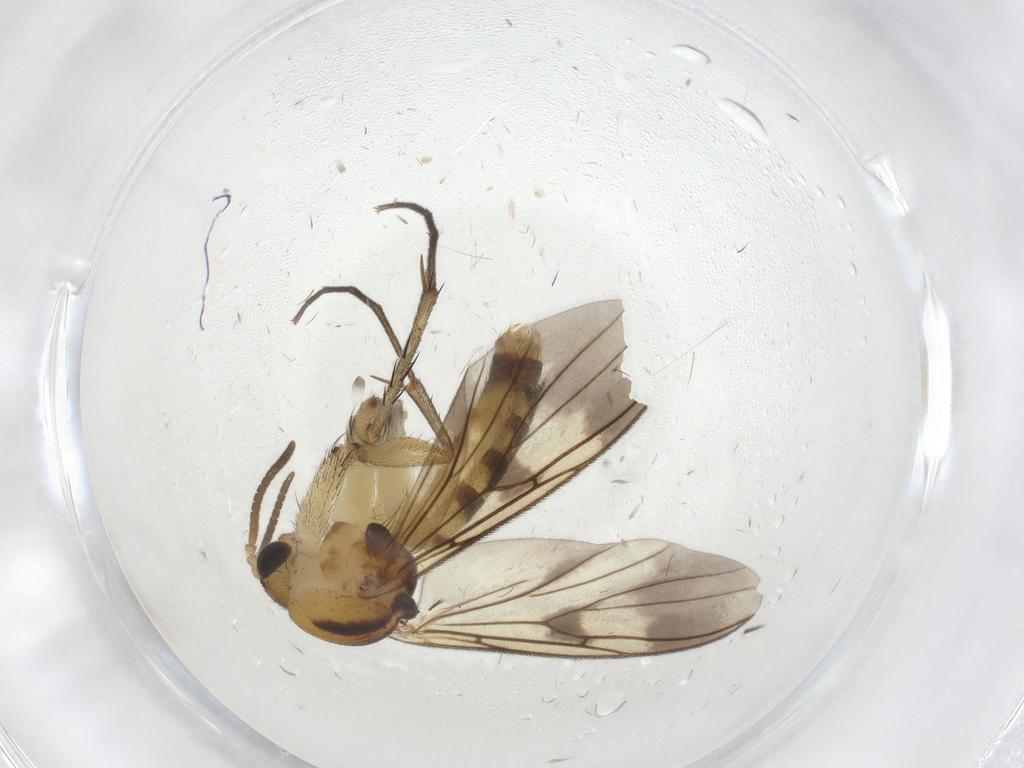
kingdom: Animalia
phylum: Arthropoda
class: Insecta
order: Diptera
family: Mycetophilidae
